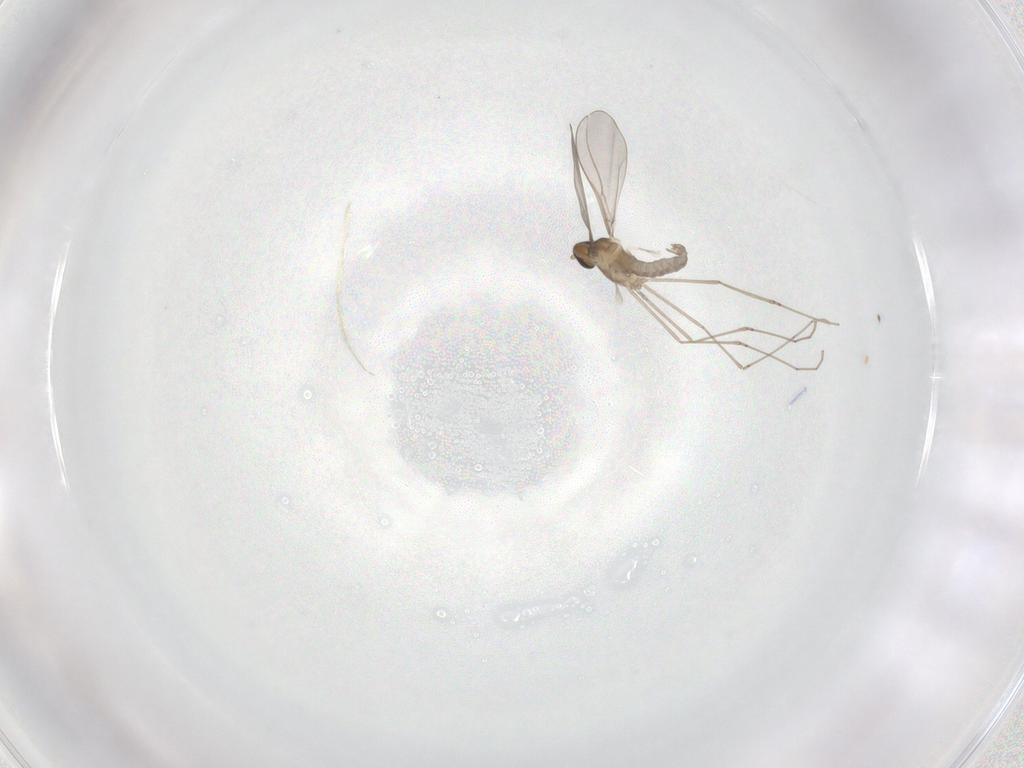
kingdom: Animalia
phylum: Arthropoda
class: Insecta
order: Diptera
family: Cecidomyiidae
